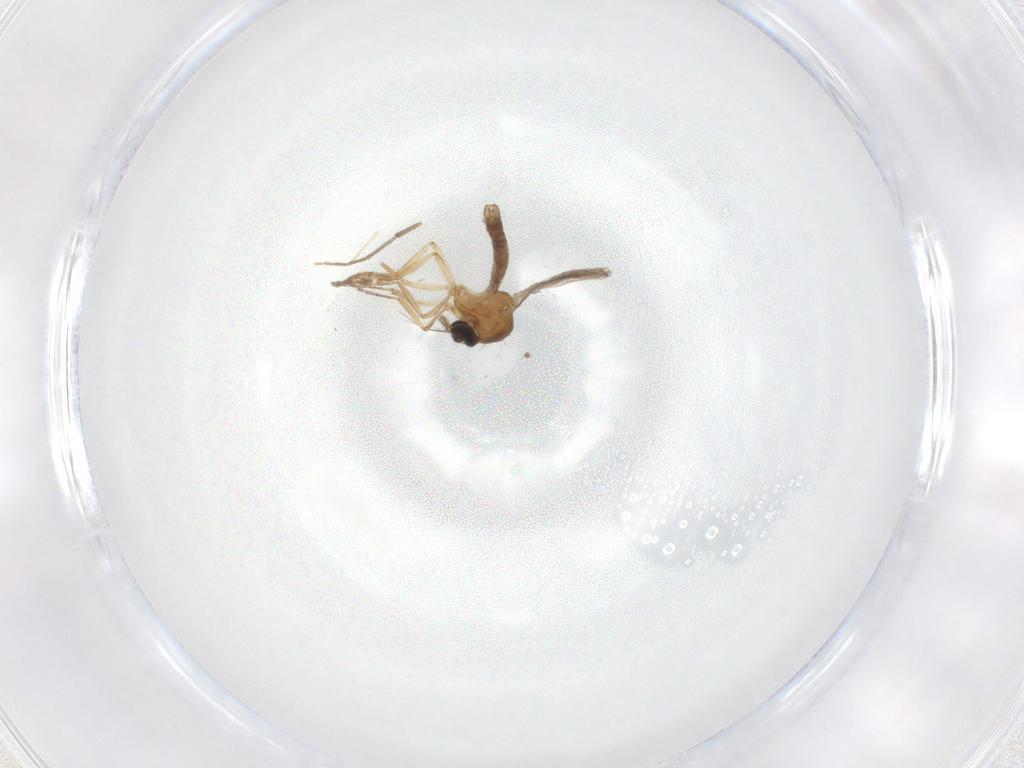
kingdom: Animalia
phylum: Arthropoda
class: Insecta
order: Diptera
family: Ceratopogonidae
